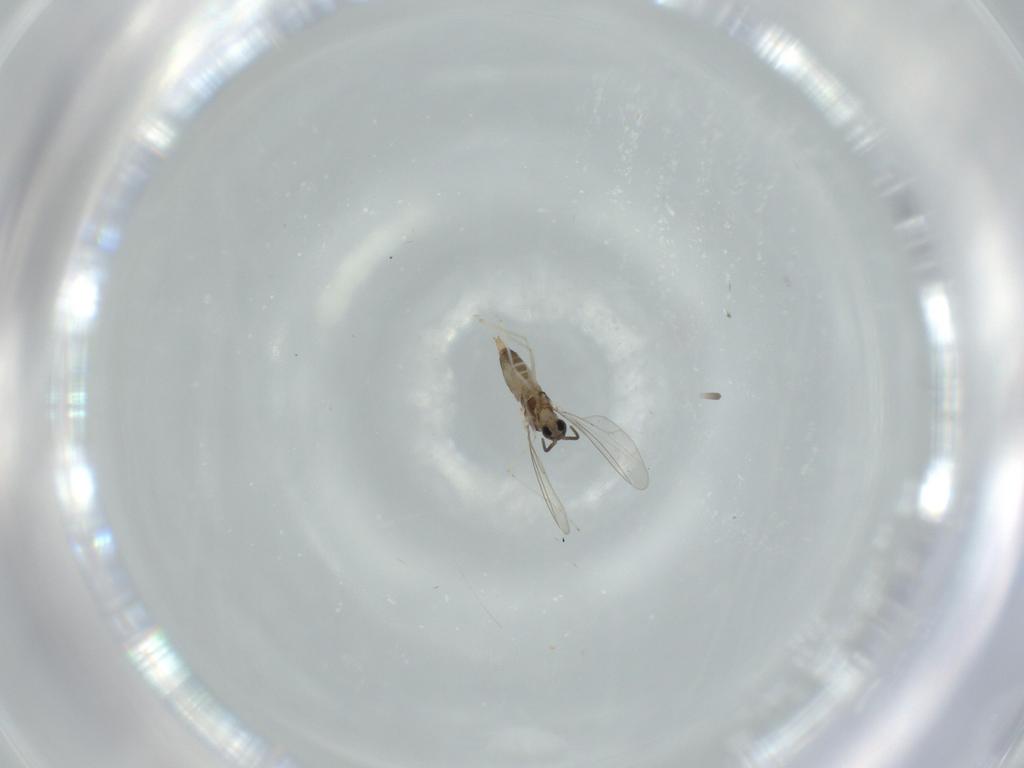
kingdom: Animalia
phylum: Arthropoda
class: Insecta
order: Diptera
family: Cecidomyiidae
